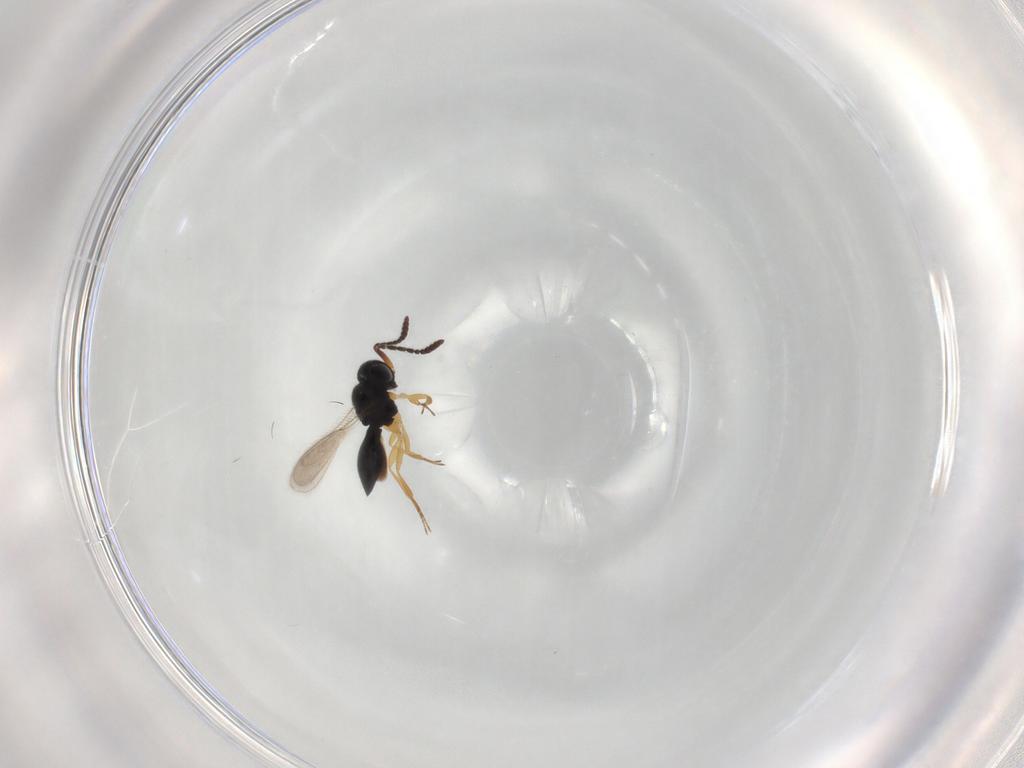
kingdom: Animalia
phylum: Arthropoda
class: Insecta
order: Hymenoptera
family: Scelionidae
